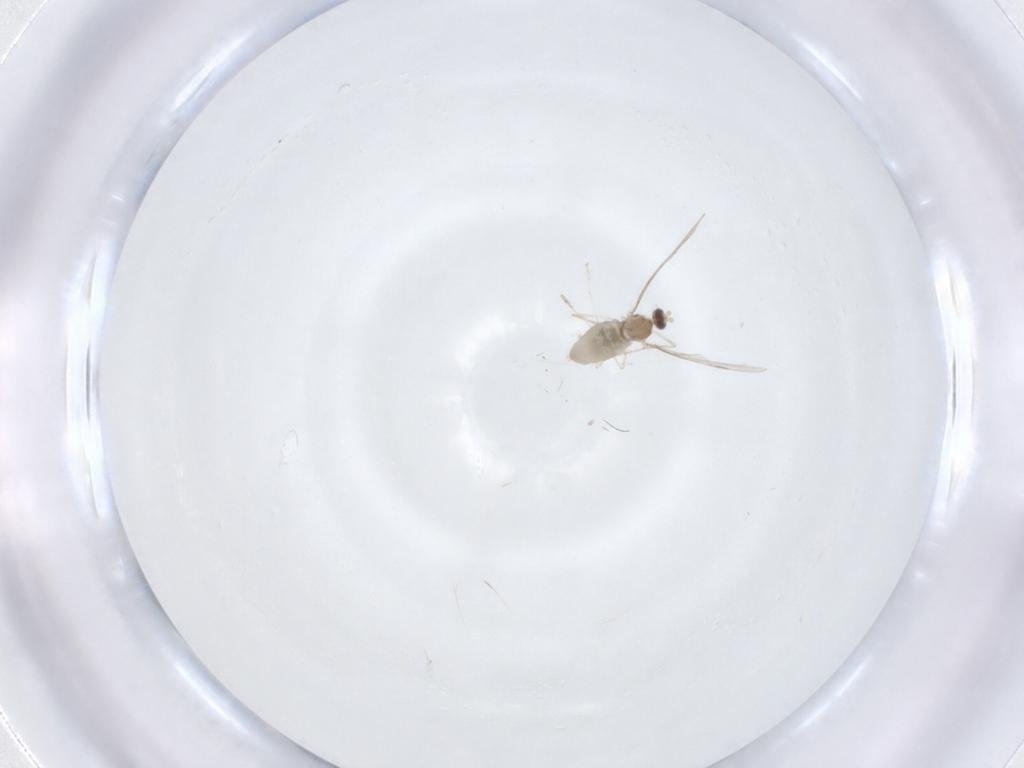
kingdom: Animalia
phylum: Arthropoda
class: Insecta
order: Diptera
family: Cecidomyiidae
